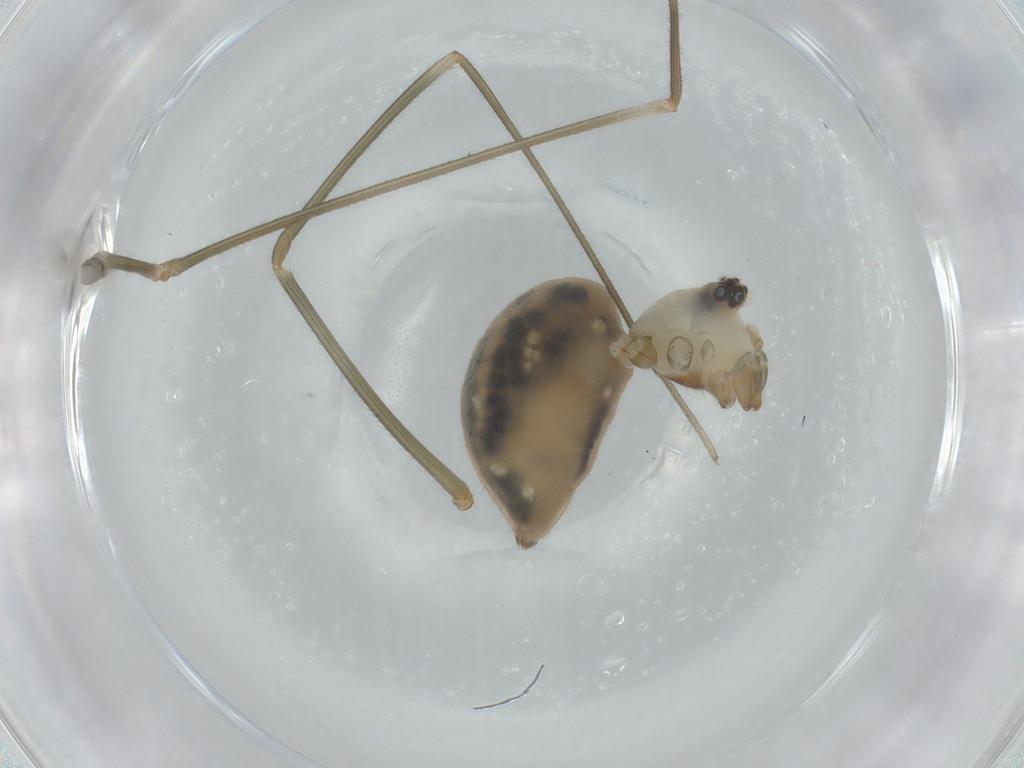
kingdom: Animalia
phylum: Arthropoda
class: Arachnida
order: Araneae
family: Pholcidae
